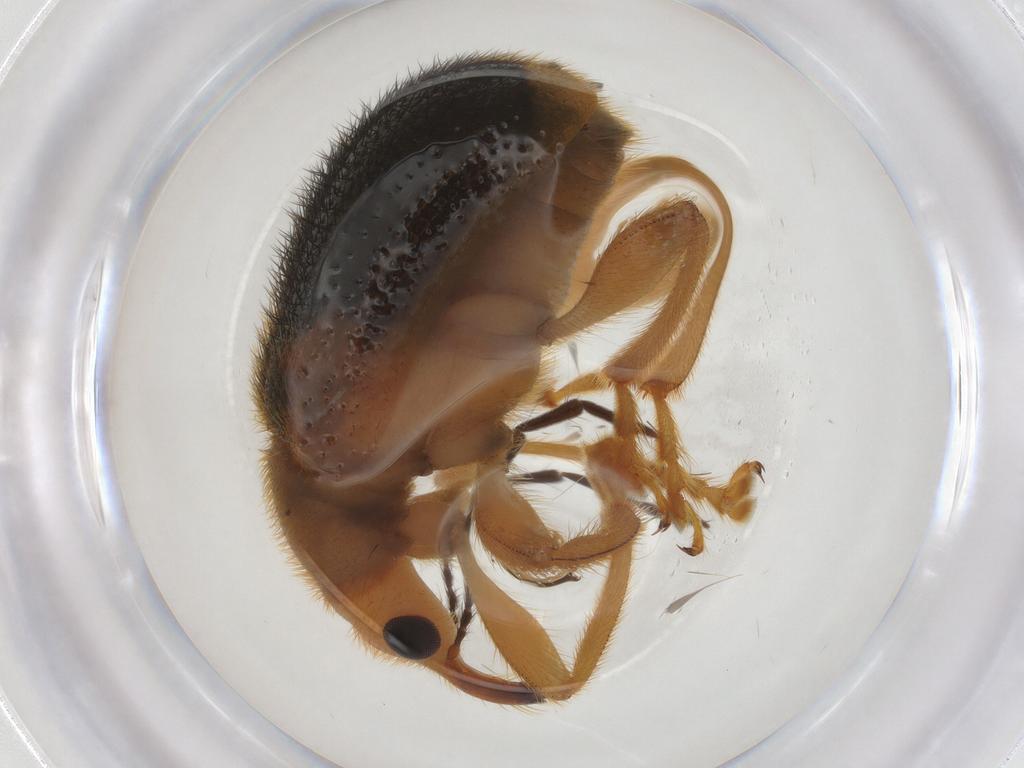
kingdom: Animalia
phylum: Arthropoda
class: Insecta
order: Coleoptera
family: Attelabidae
